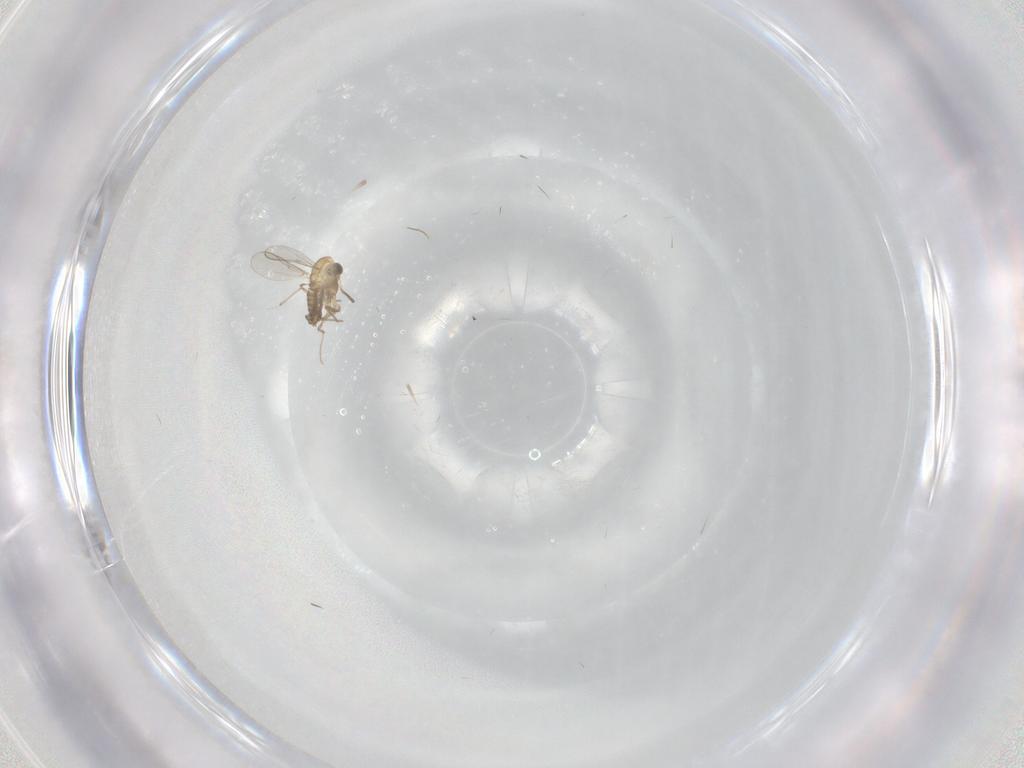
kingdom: Animalia
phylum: Arthropoda
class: Insecta
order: Diptera
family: Chironomidae
